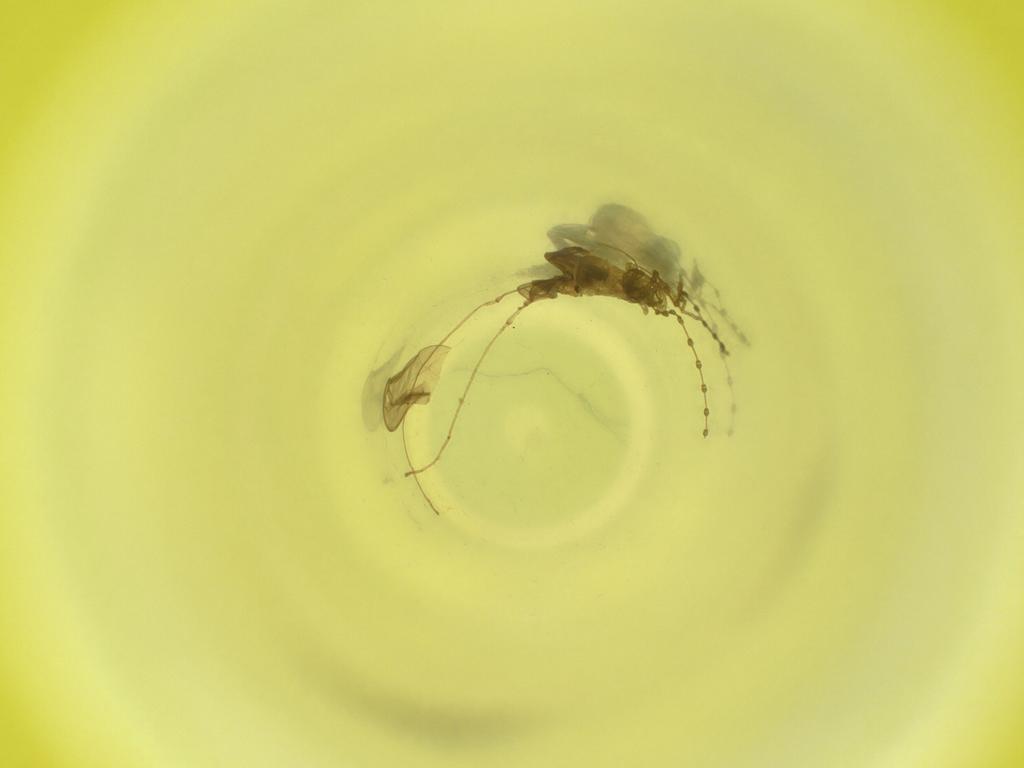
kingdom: Animalia
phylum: Arthropoda
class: Insecta
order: Diptera
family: Cecidomyiidae
